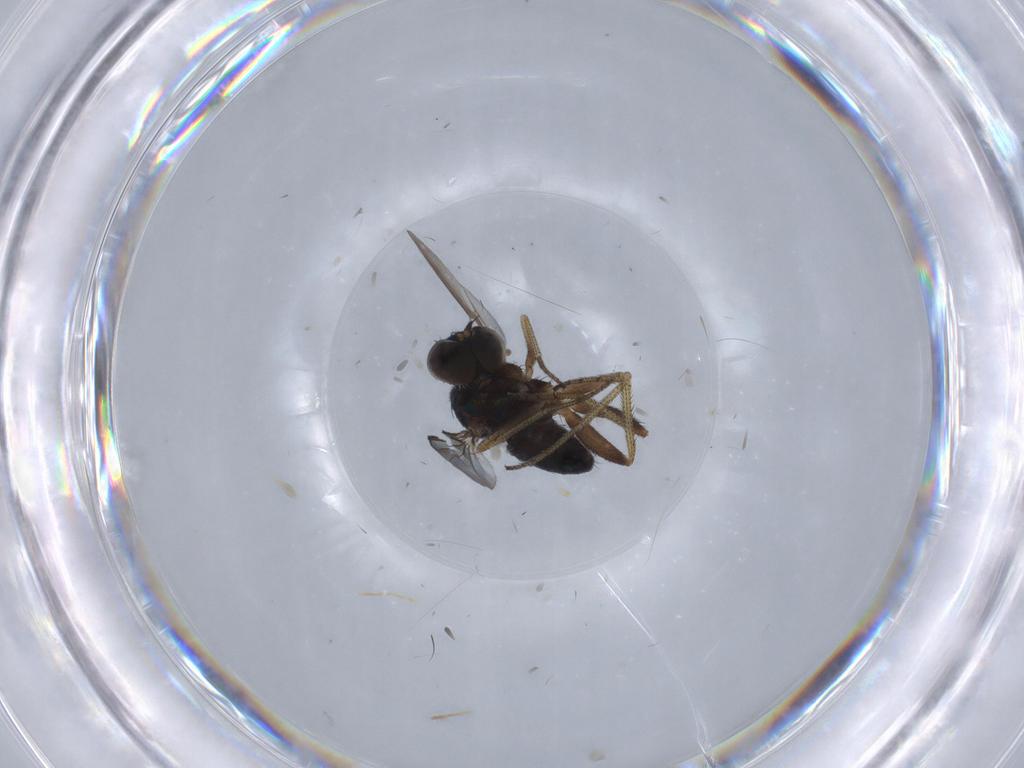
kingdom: Animalia
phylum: Arthropoda
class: Insecta
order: Diptera
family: Dolichopodidae
